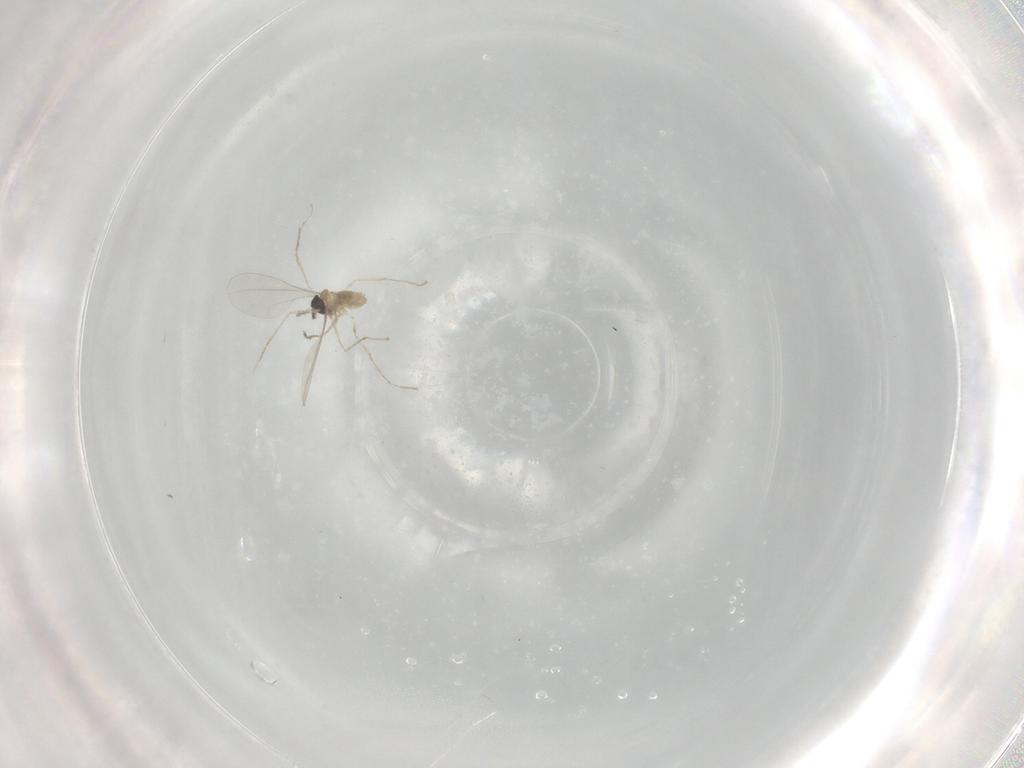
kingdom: Animalia
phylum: Arthropoda
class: Insecta
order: Diptera
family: Cecidomyiidae
